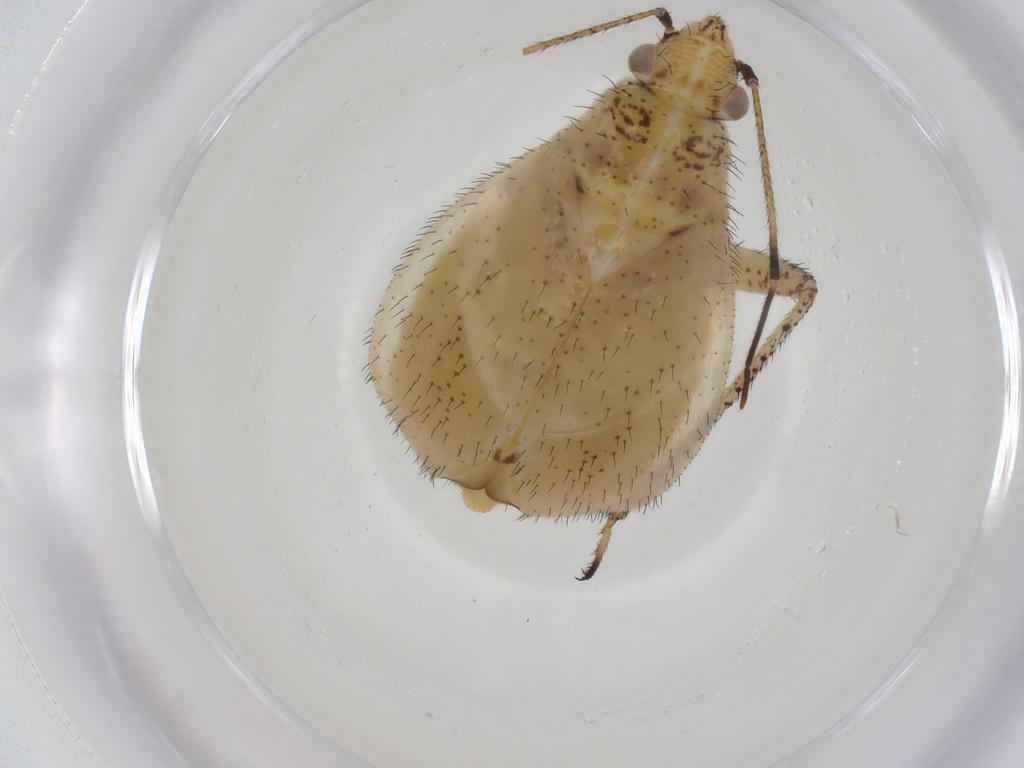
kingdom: Animalia
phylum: Arthropoda
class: Insecta
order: Hemiptera
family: Miridae
